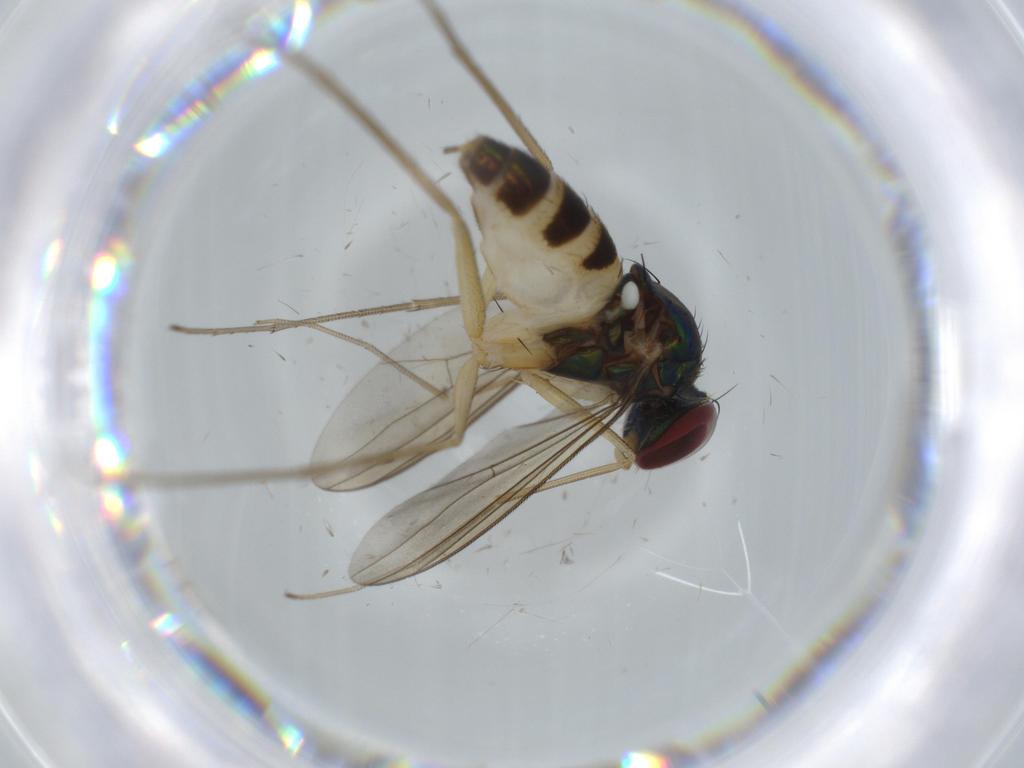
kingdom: Animalia
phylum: Arthropoda
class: Insecta
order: Diptera
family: Dolichopodidae
